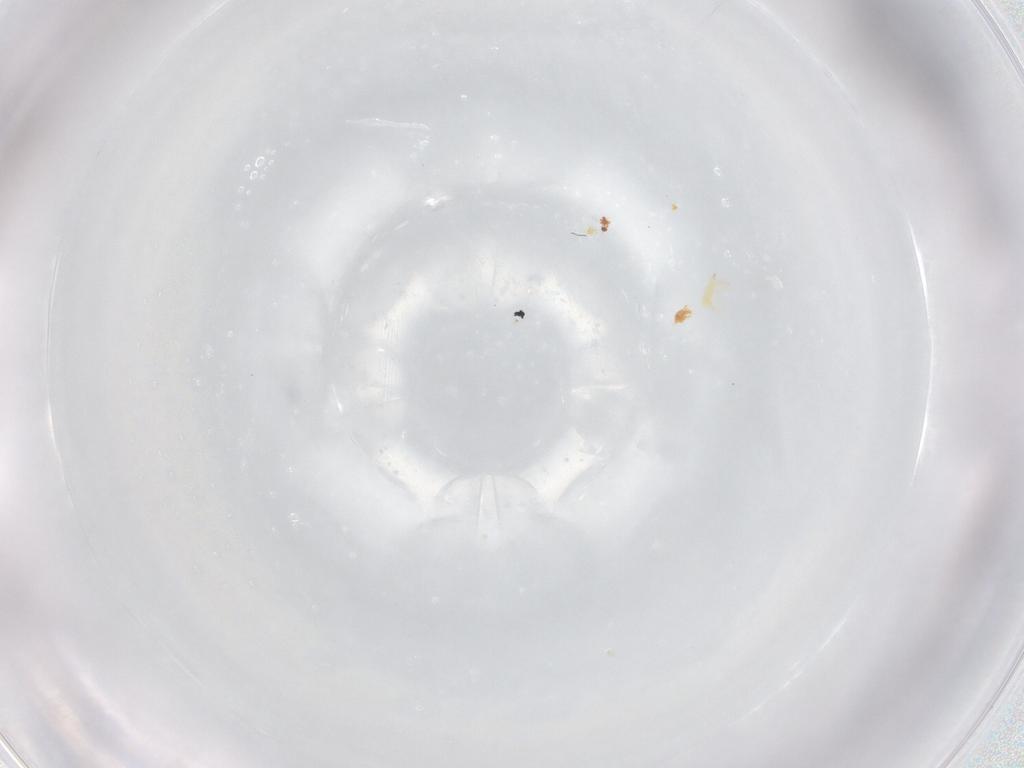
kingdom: Animalia
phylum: Arthropoda
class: Arachnida
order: Trombidiformes
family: Cunaxidae
